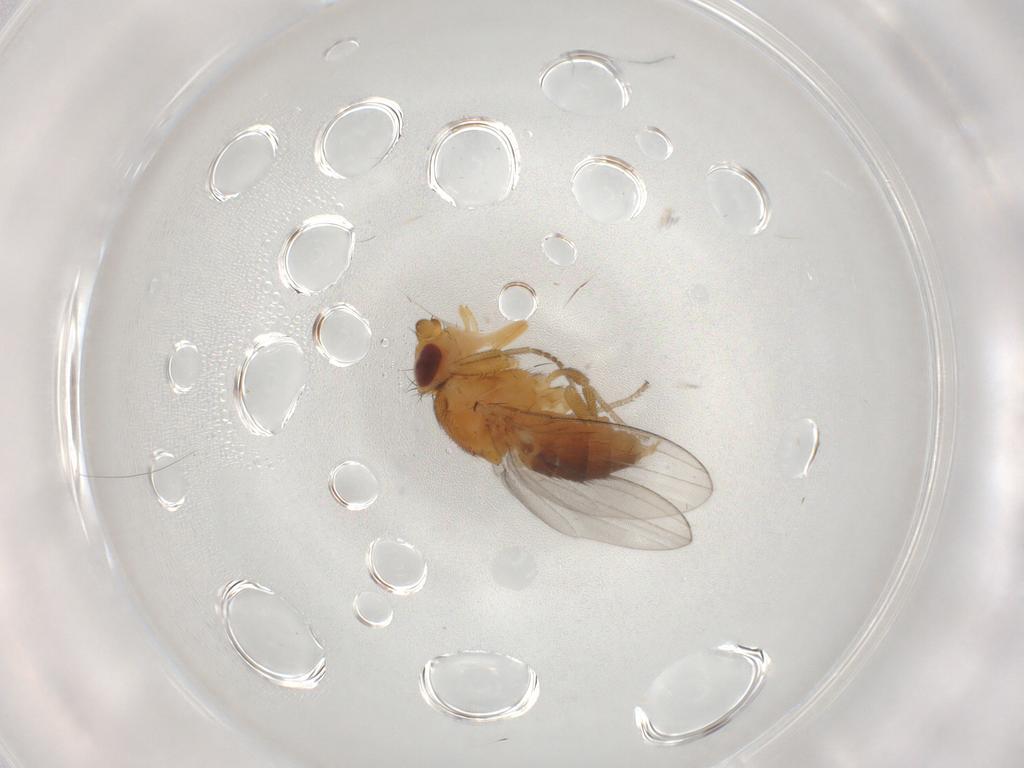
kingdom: Animalia
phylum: Arthropoda
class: Insecta
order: Diptera
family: Milichiidae
